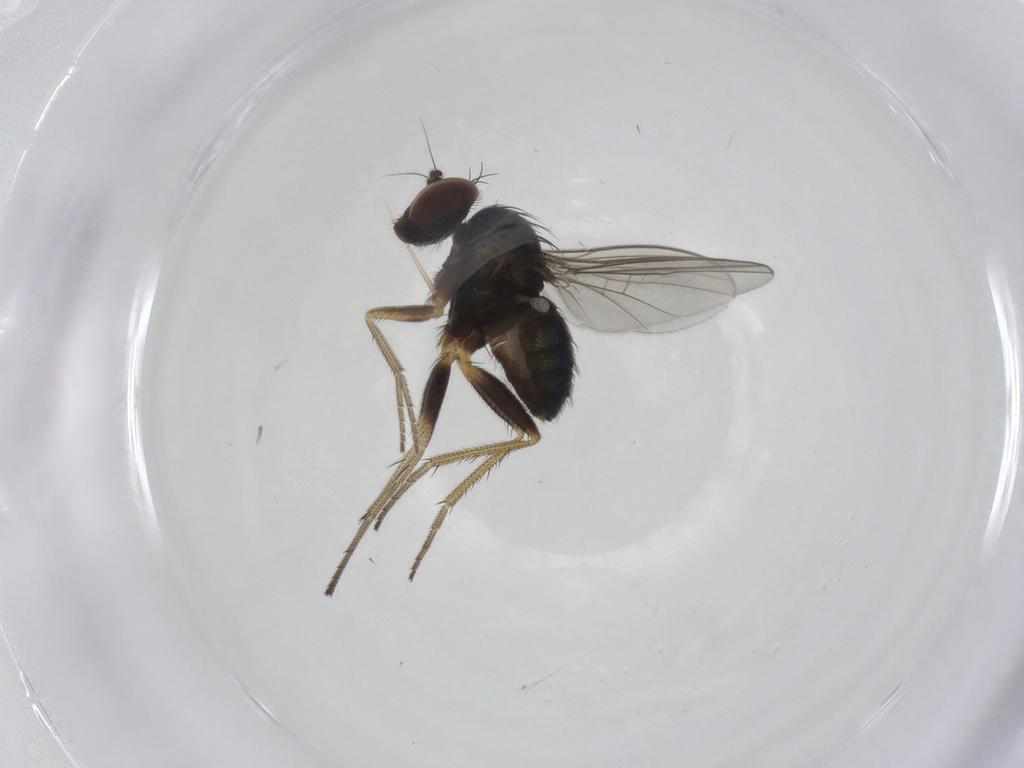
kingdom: Animalia
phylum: Arthropoda
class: Insecta
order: Diptera
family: Dolichopodidae
